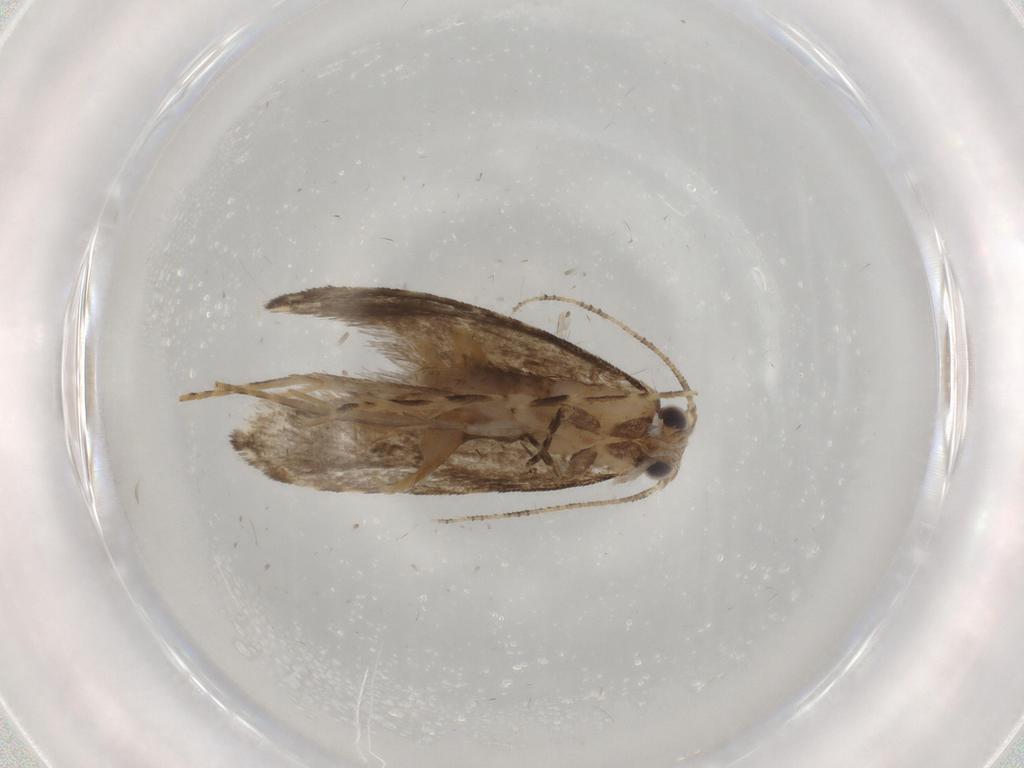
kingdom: Animalia
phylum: Arthropoda
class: Insecta
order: Lepidoptera
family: Tineidae
